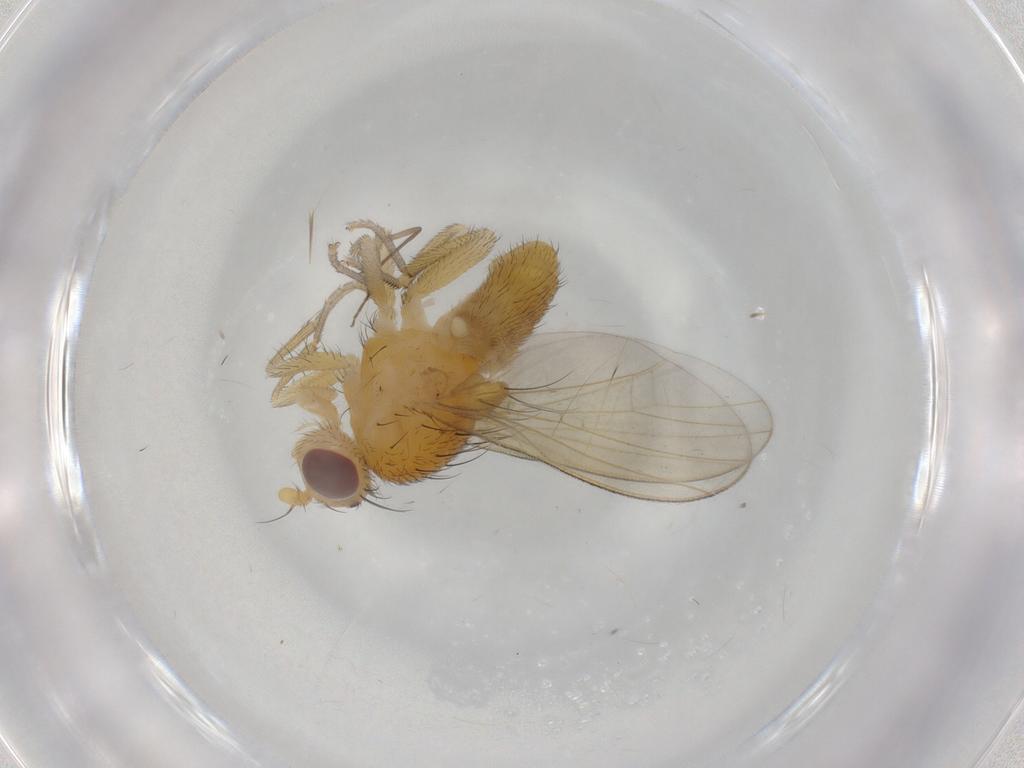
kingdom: Animalia
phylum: Arthropoda
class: Insecta
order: Diptera
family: Chironomidae
